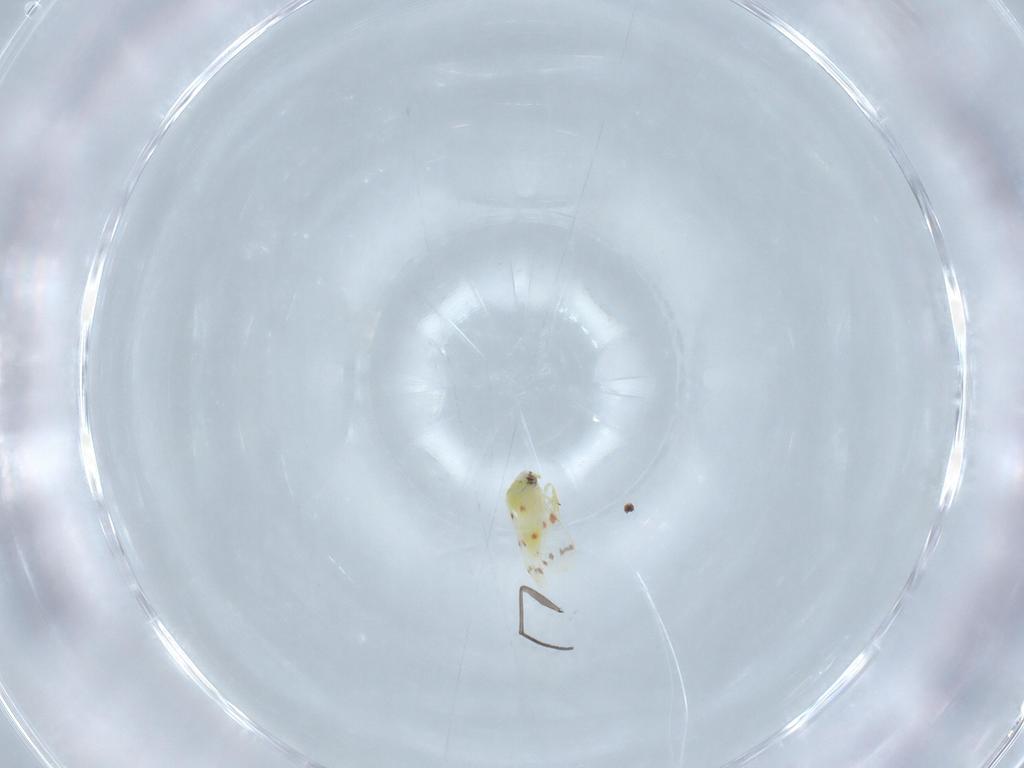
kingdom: Animalia
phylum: Arthropoda
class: Insecta
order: Hemiptera
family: Aleyrodidae
